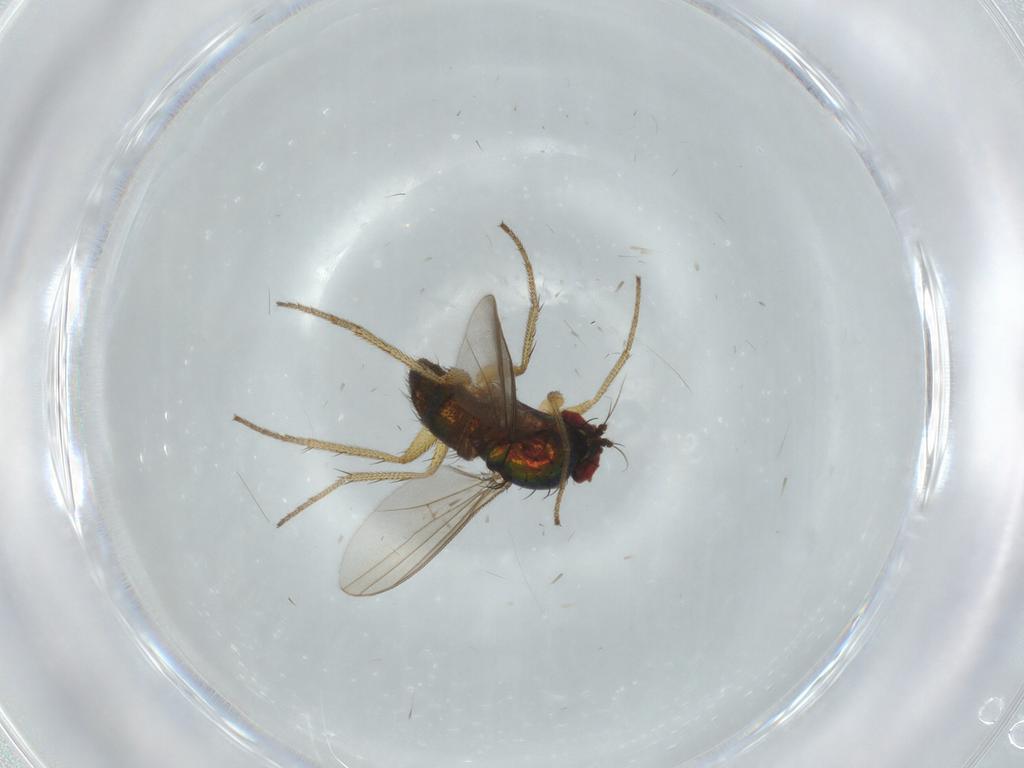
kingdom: Animalia
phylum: Arthropoda
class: Insecta
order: Diptera
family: Dolichopodidae
